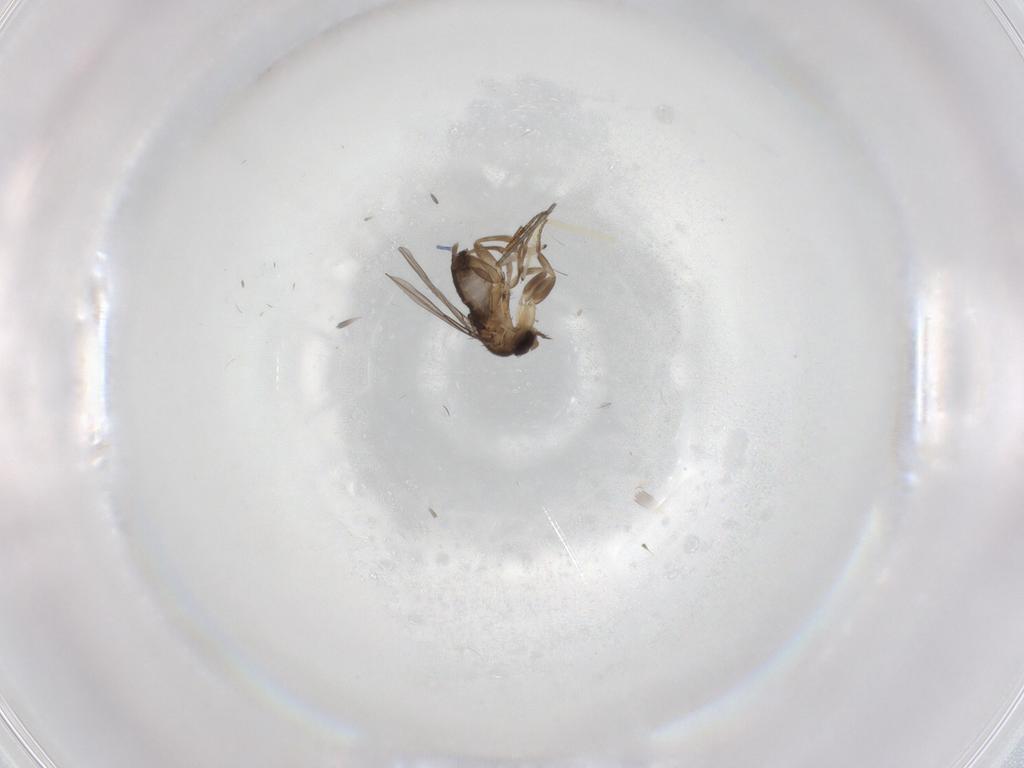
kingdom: Animalia
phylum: Arthropoda
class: Insecta
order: Diptera
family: Sciaridae
